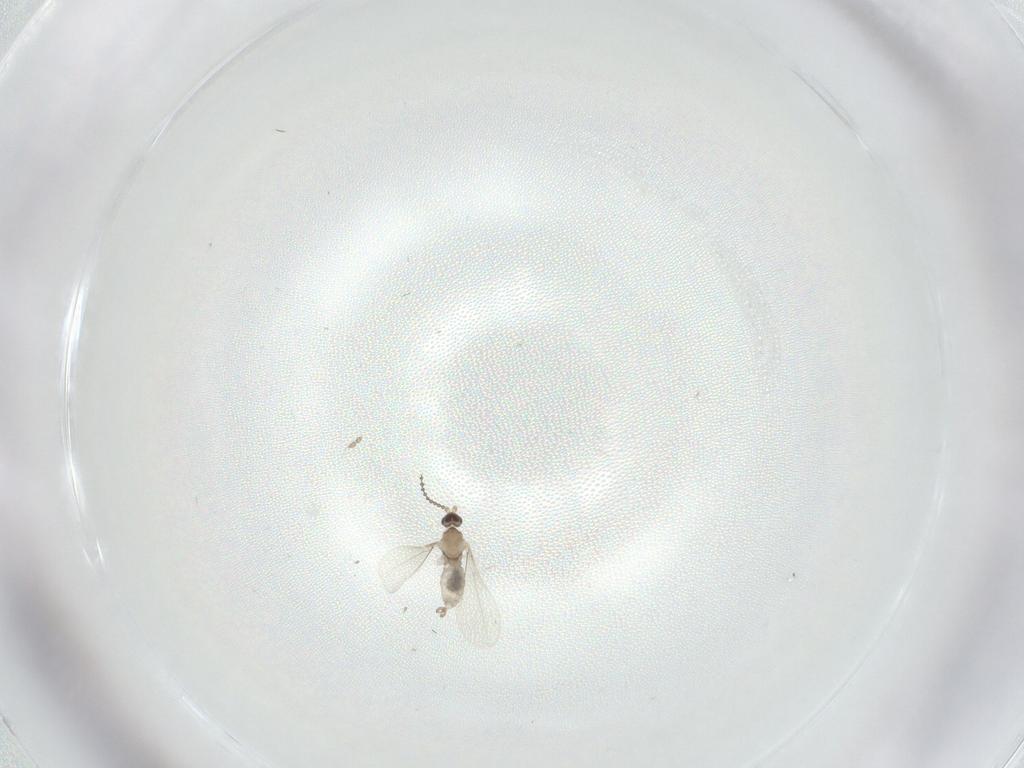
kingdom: Animalia
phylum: Arthropoda
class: Insecta
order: Diptera
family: Cecidomyiidae
